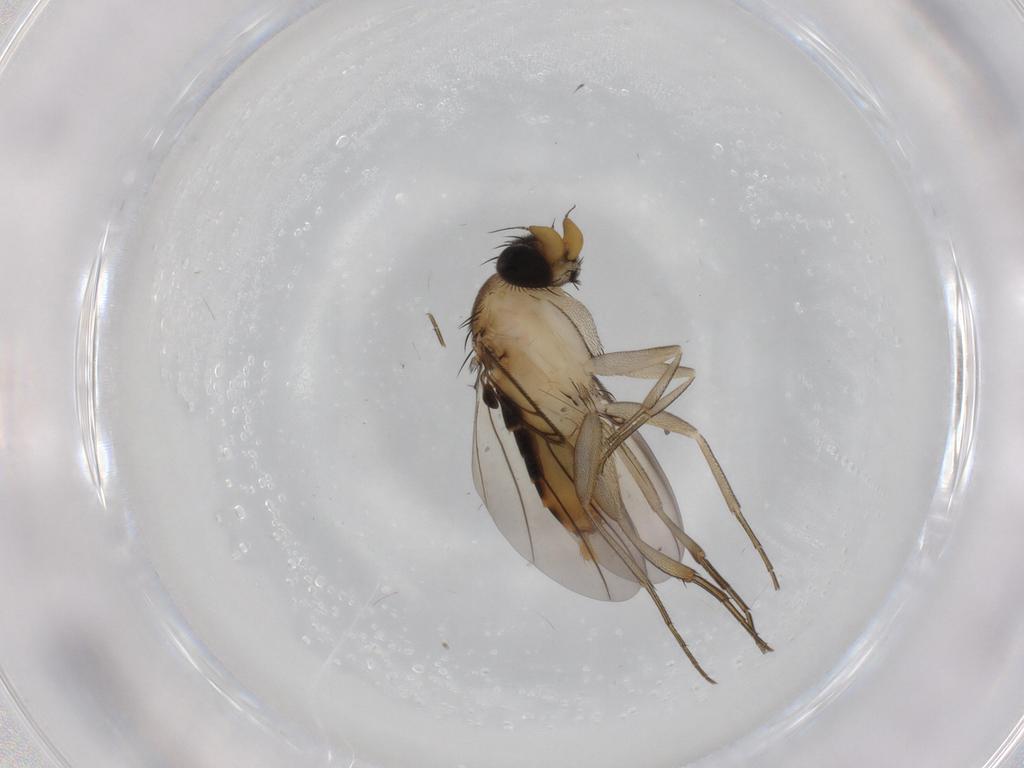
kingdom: Animalia
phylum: Arthropoda
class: Insecta
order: Diptera
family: Phoridae
